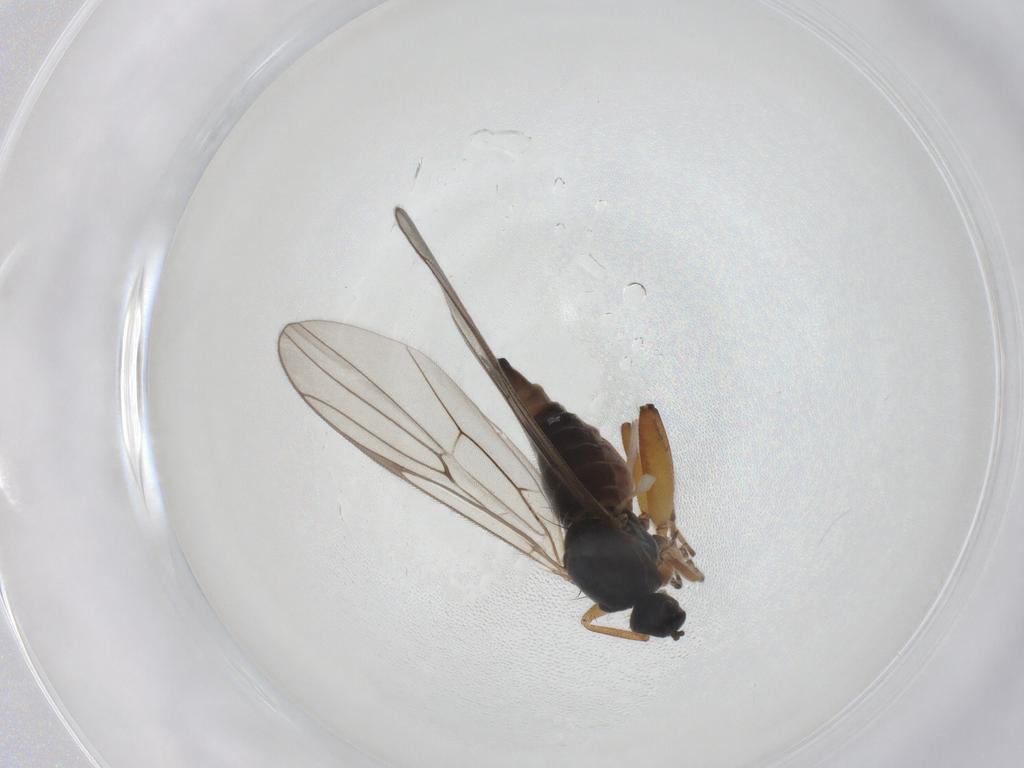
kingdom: Animalia
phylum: Arthropoda
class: Insecta
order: Diptera
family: Hybotidae
